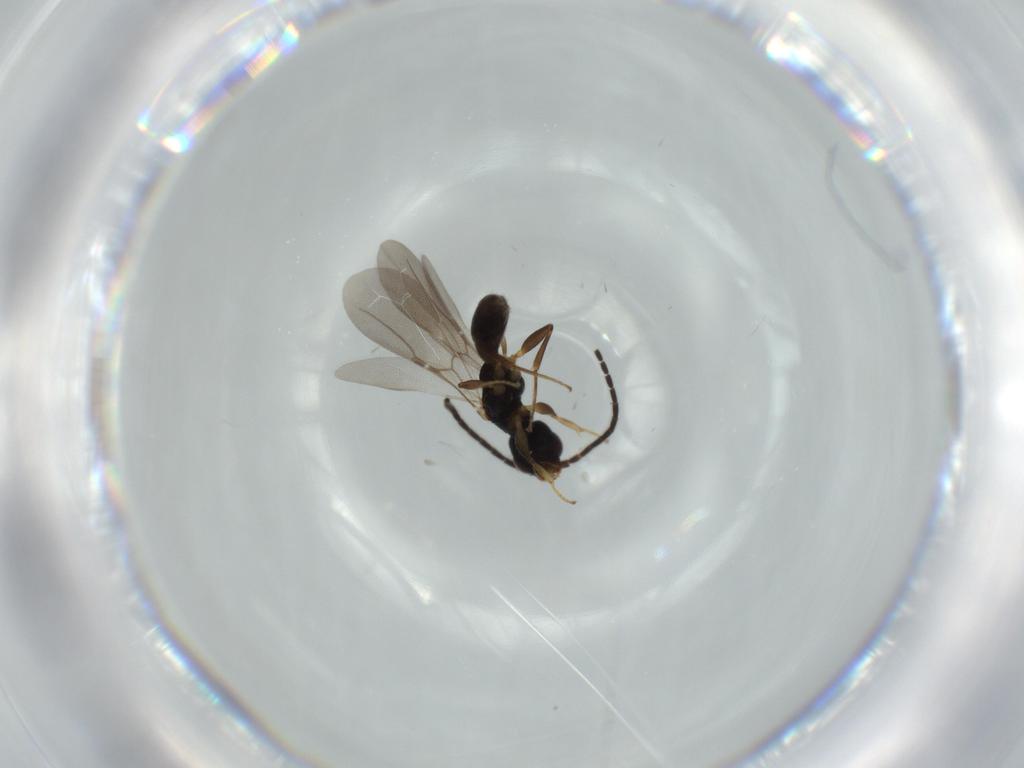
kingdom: Animalia
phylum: Arthropoda
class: Insecta
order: Hymenoptera
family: Bethylidae
